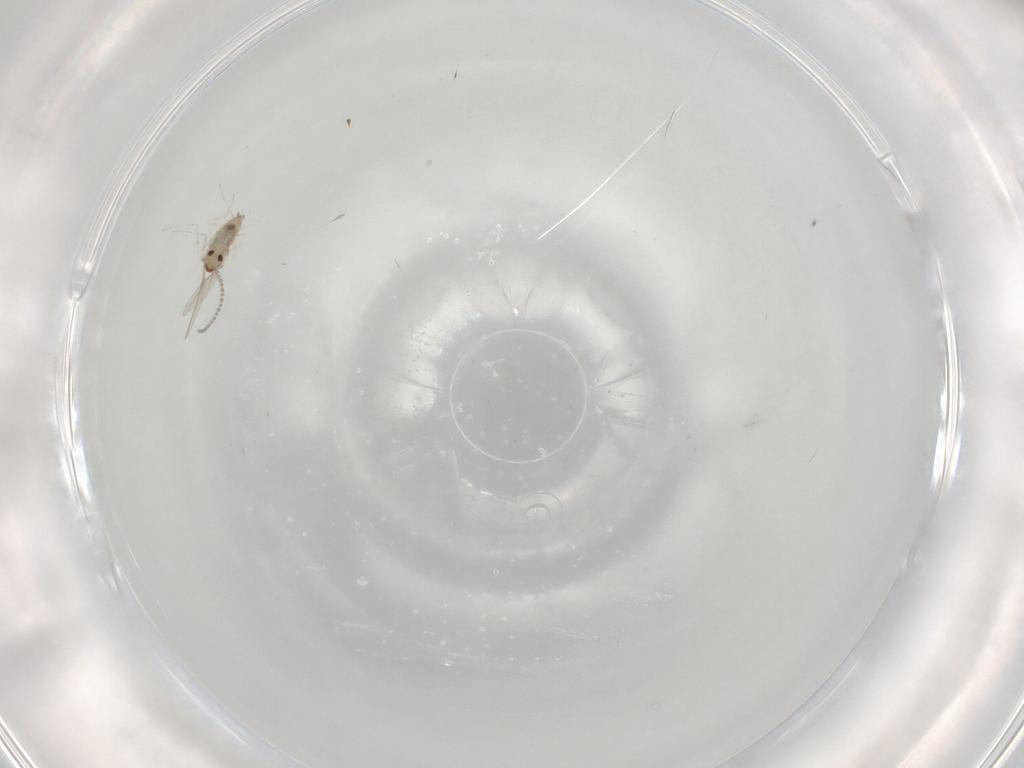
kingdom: Animalia
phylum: Arthropoda
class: Insecta
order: Diptera
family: Cecidomyiidae
